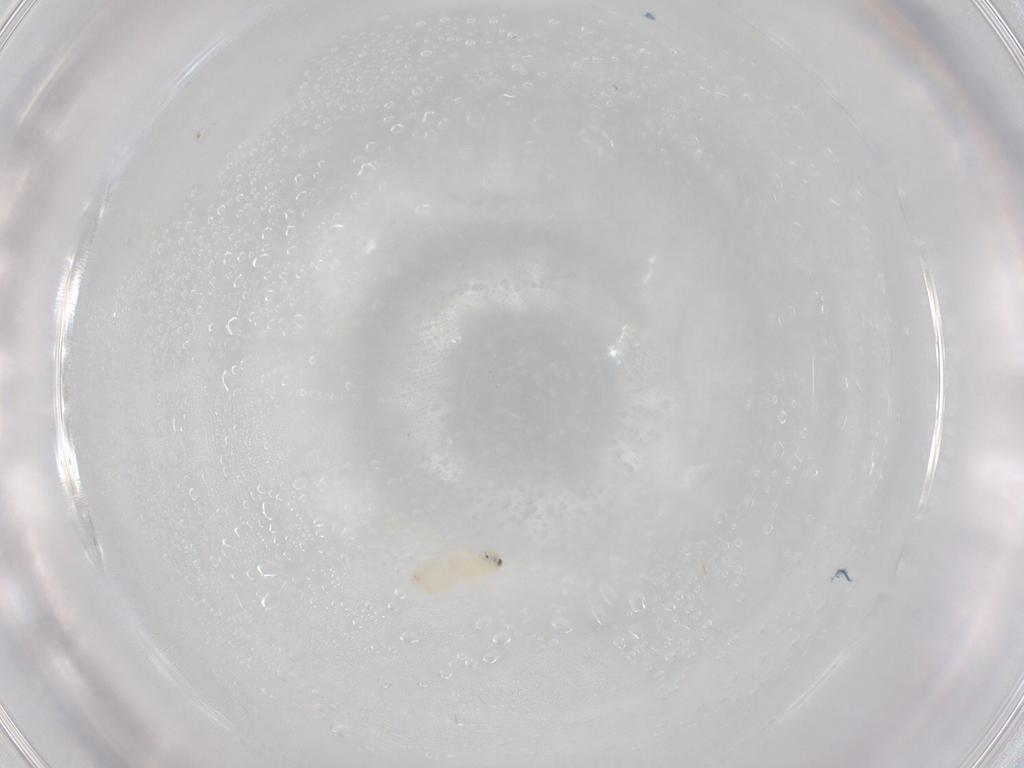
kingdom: Animalia
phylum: Arthropoda
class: Insecta
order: Hemiptera
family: Aleyrodidae
